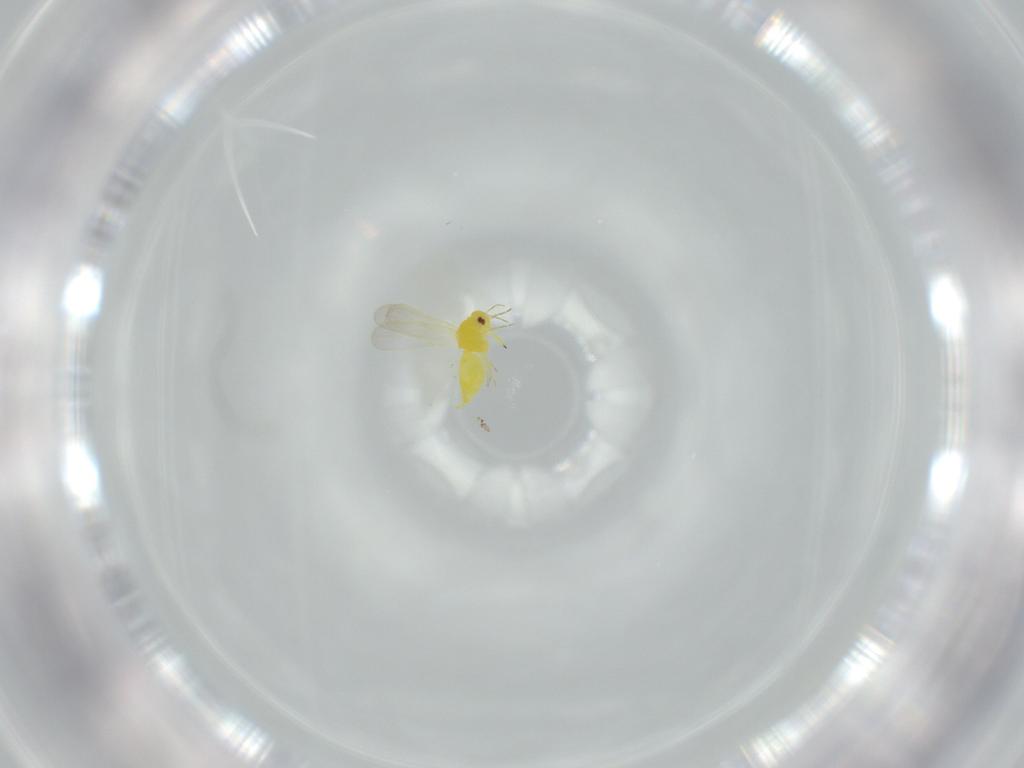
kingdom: Animalia
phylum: Arthropoda
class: Insecta
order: Hemiptera
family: Aleyrodidae
